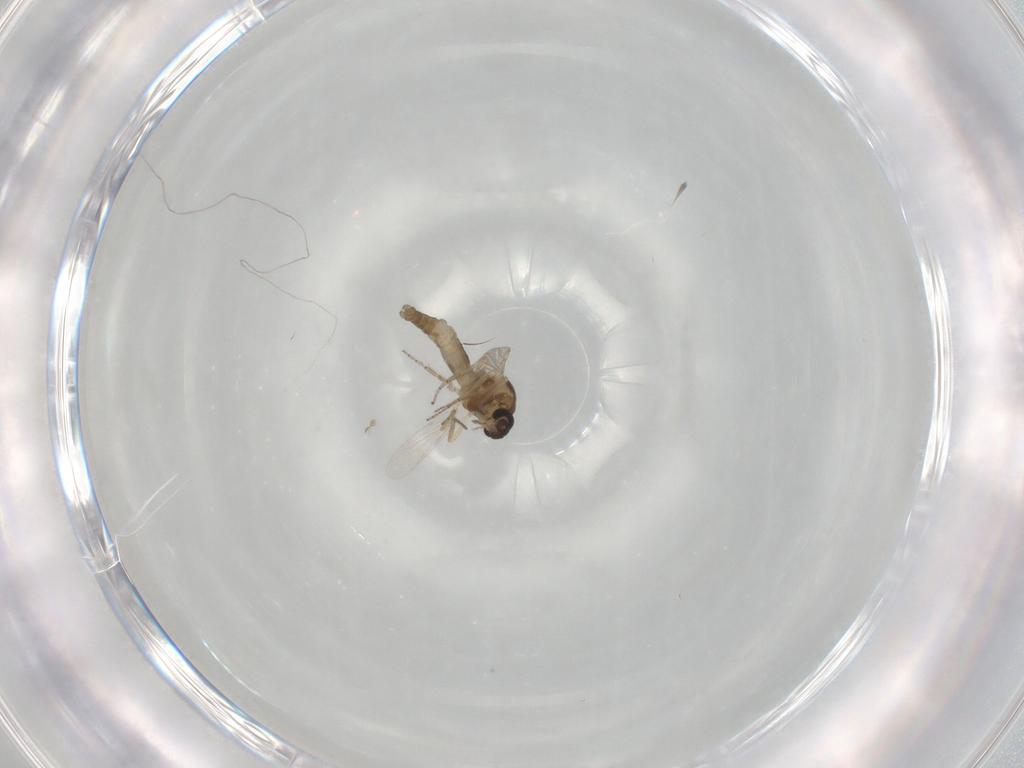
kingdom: Animalia
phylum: Arthropoda
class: Insecta
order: Diptera
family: Ceratopogonidae
